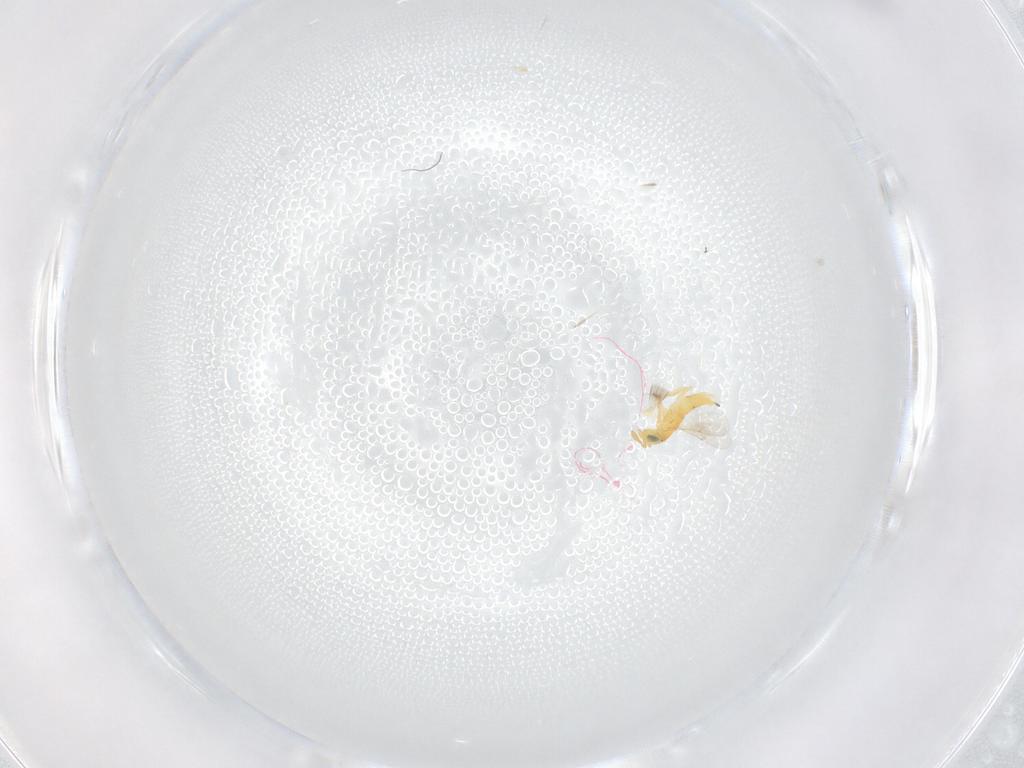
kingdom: Animalia
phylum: Arthropoda
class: Insecta
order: Hymenoptera
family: Encyrtidae
